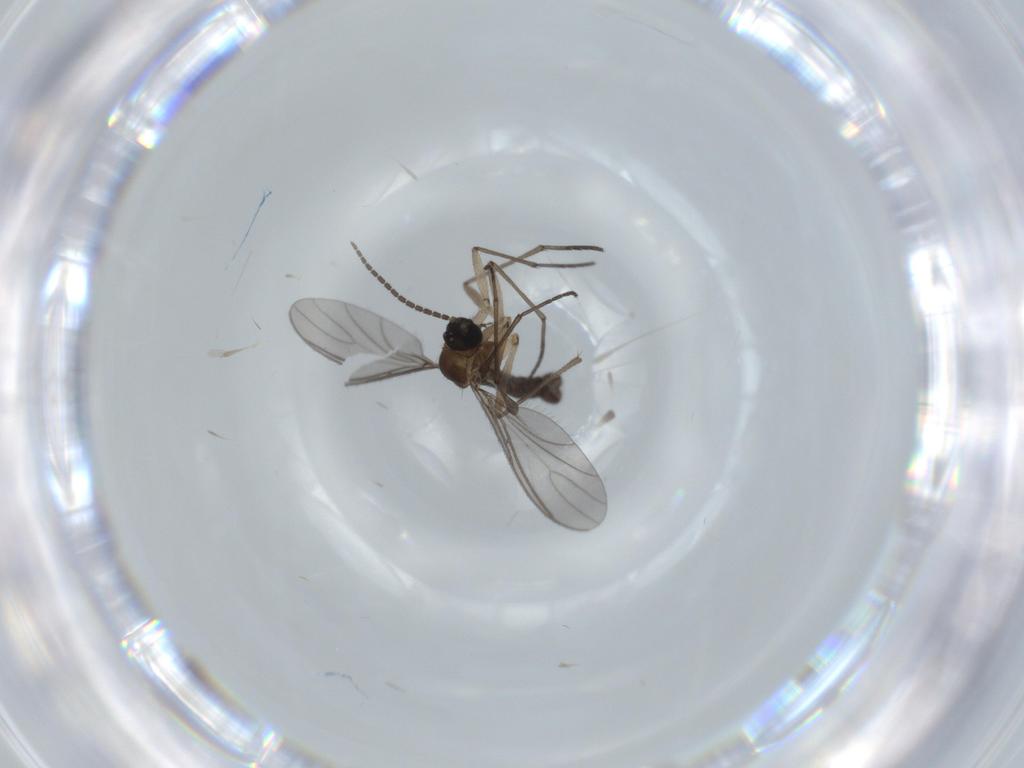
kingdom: Animalia
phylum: Arthropoda
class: Insecta
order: Diptera
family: Sciaridae
